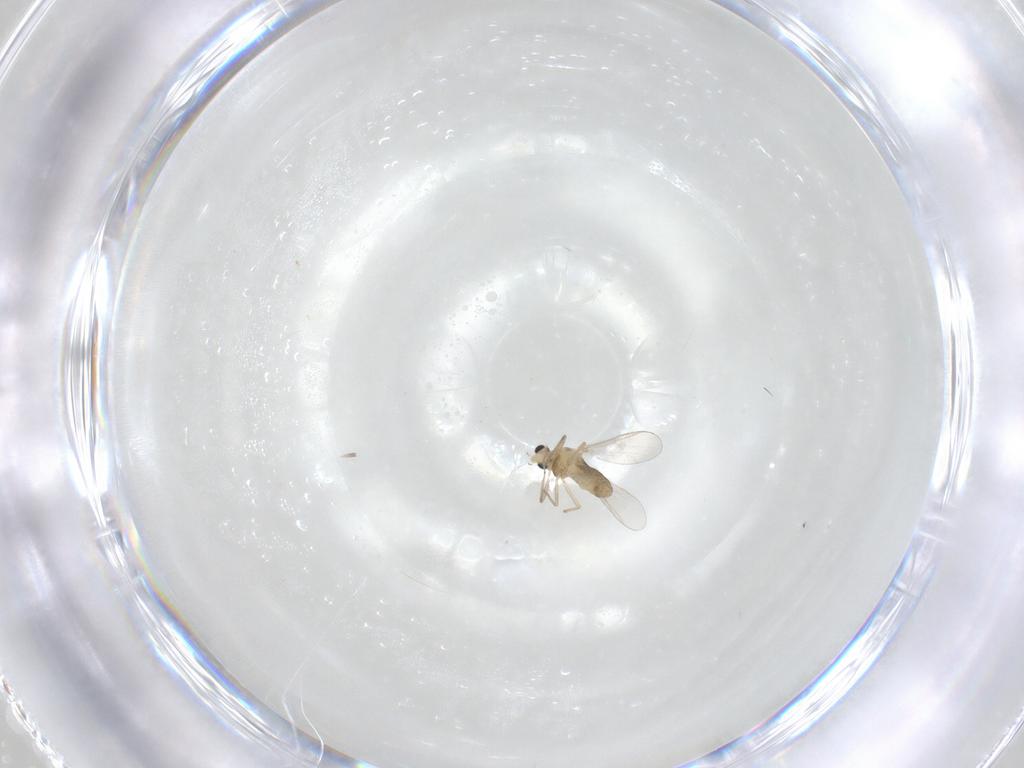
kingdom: Animalia
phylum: Arthropoda
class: Insecta
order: Diptera
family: Chironomidae
